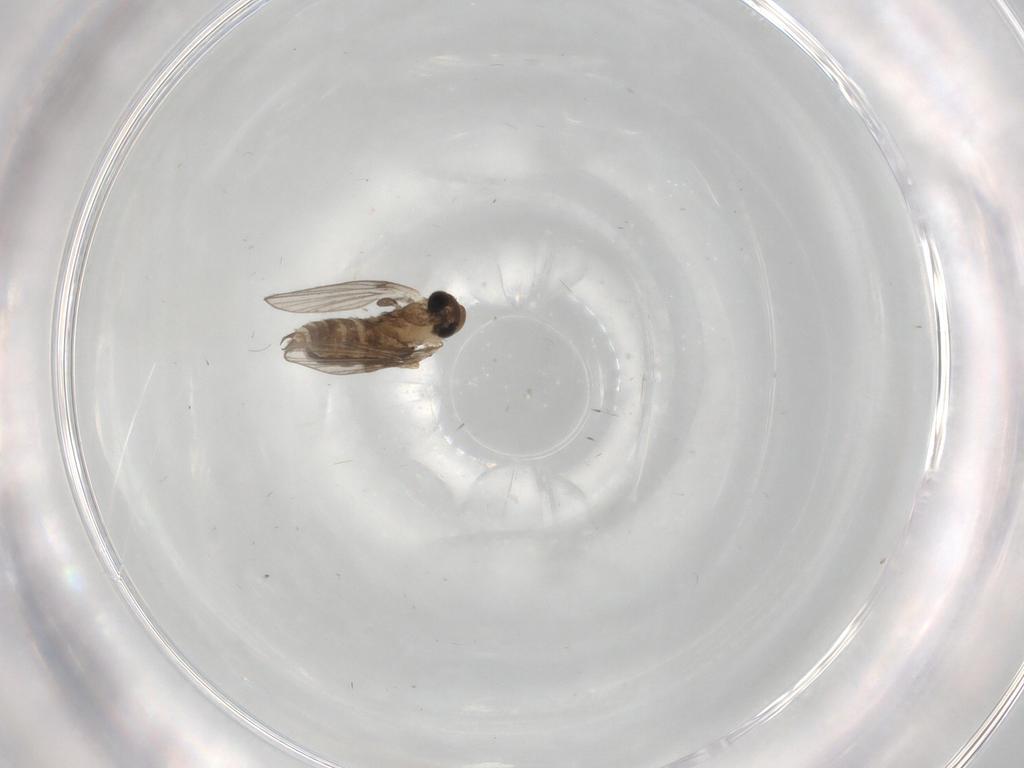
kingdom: Animalia
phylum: Arthropoda
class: Insecta
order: Diptera
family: Psychodidae
